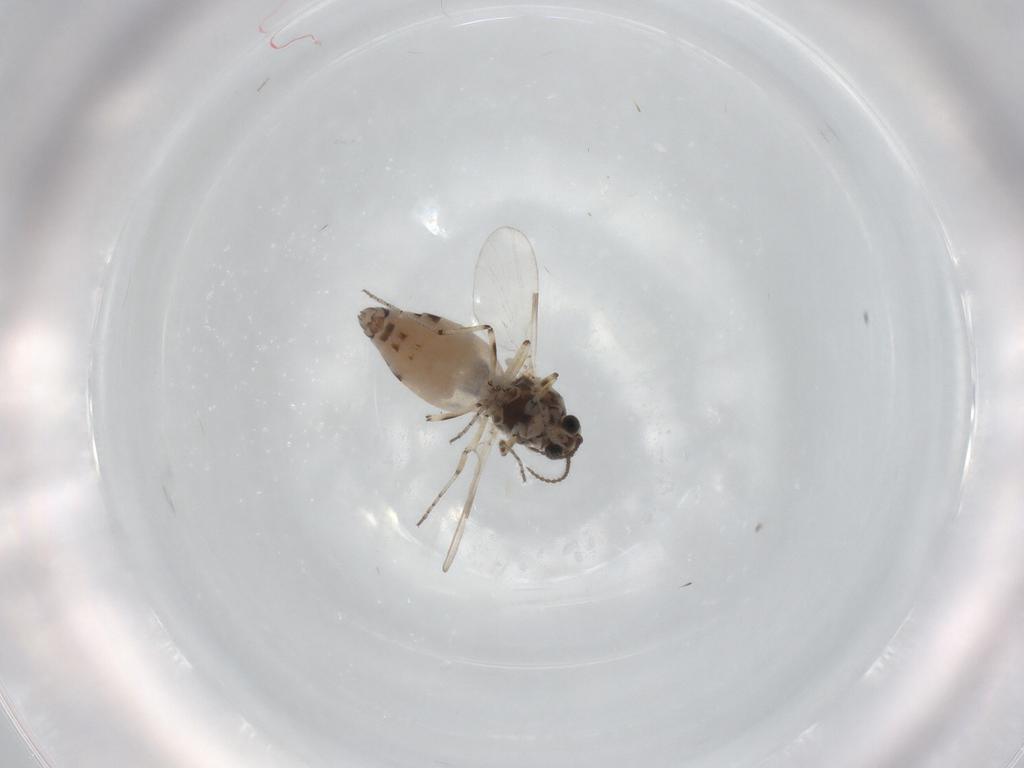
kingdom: Animalia
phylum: Arthropoda
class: Insecta
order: Diptera
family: Ceratopogonidae
